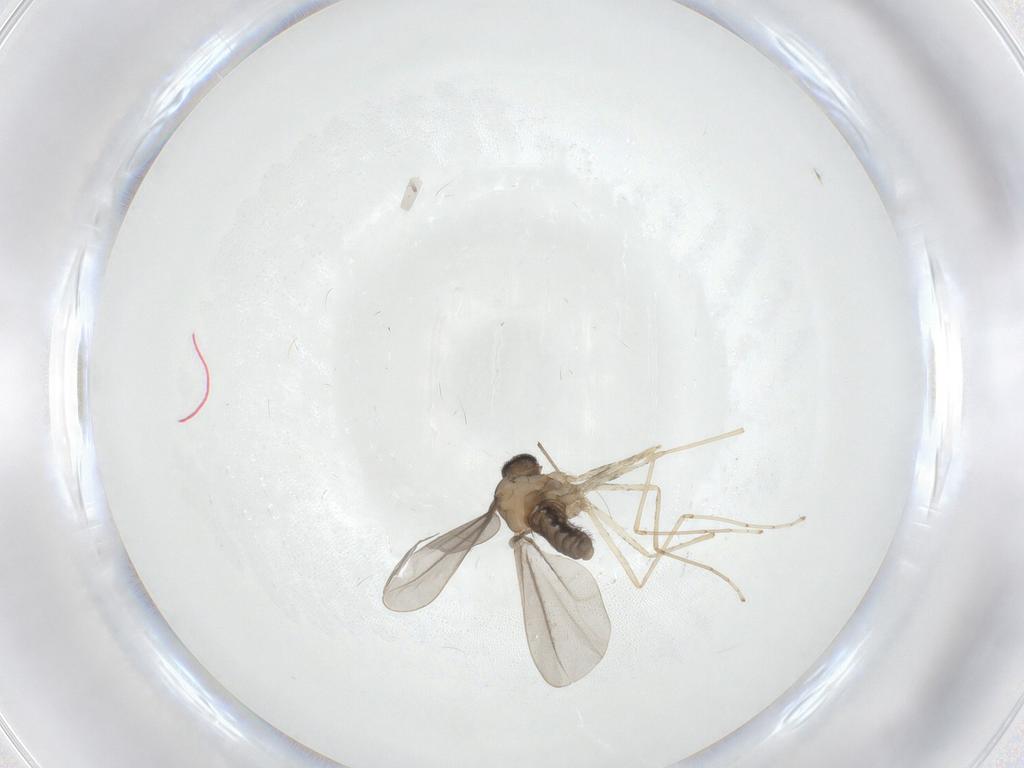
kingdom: Animalia
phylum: Arthropoda
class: Insecta
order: Diptera
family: Cecidomyiidae
